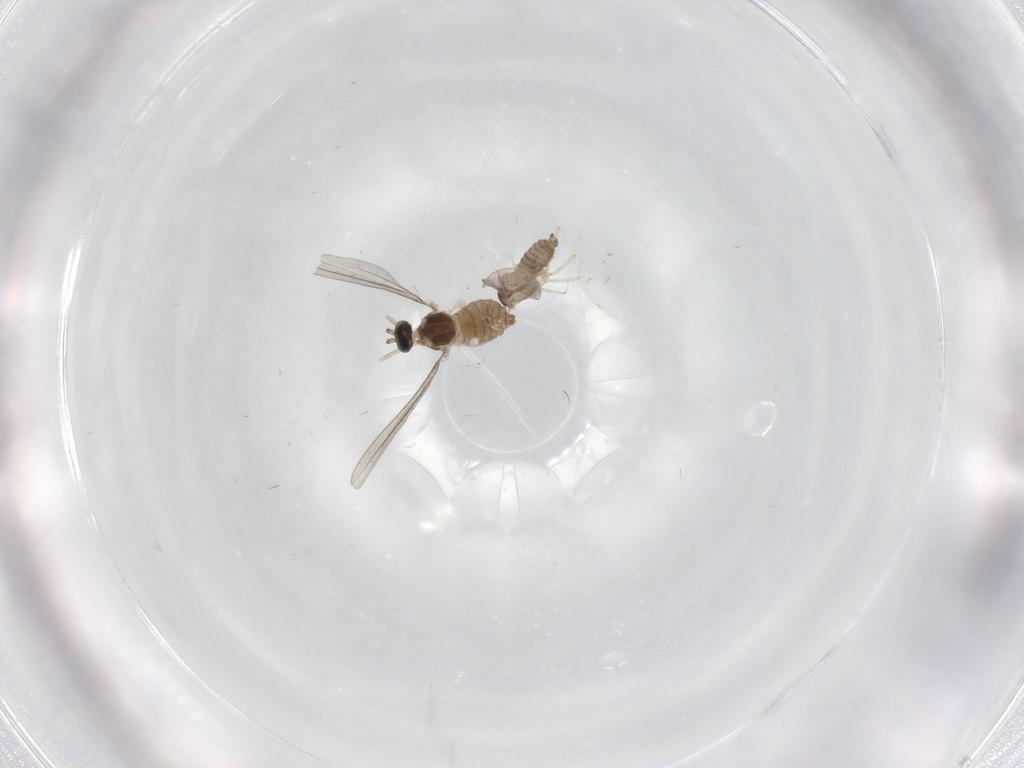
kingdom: Animalia
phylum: Arthropoda
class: Insecta
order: Diptera
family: Cecidomyiidae
